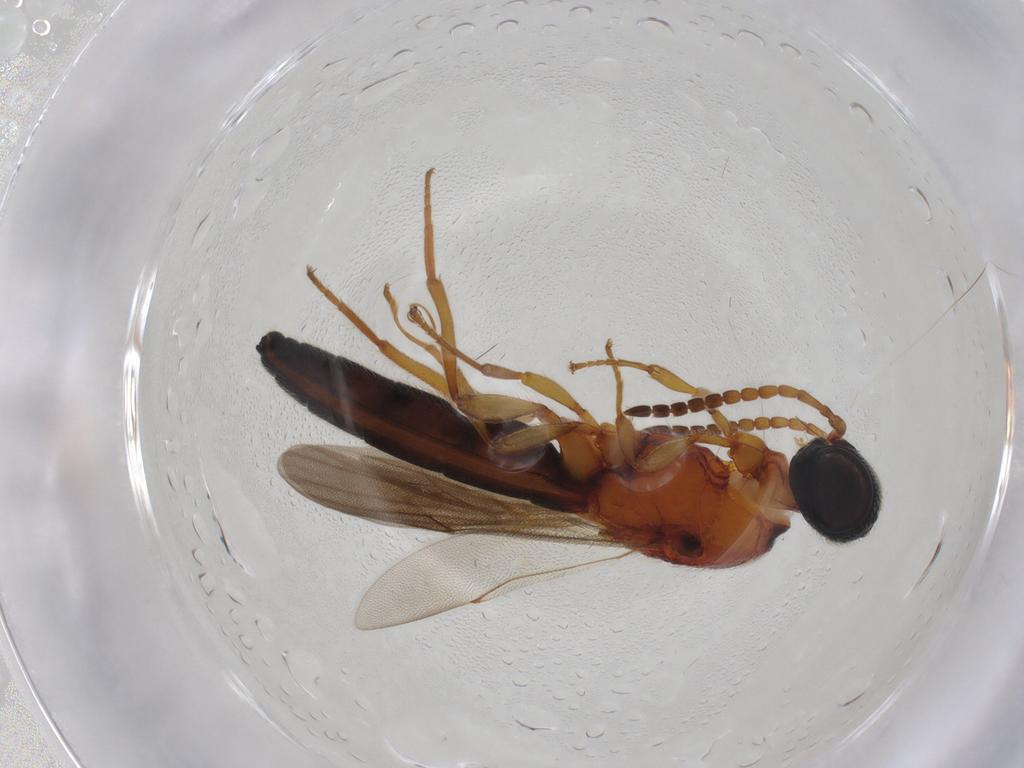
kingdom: Animalia
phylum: Arthropoda
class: Insecta
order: Hymenoptera
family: Scelionidae
